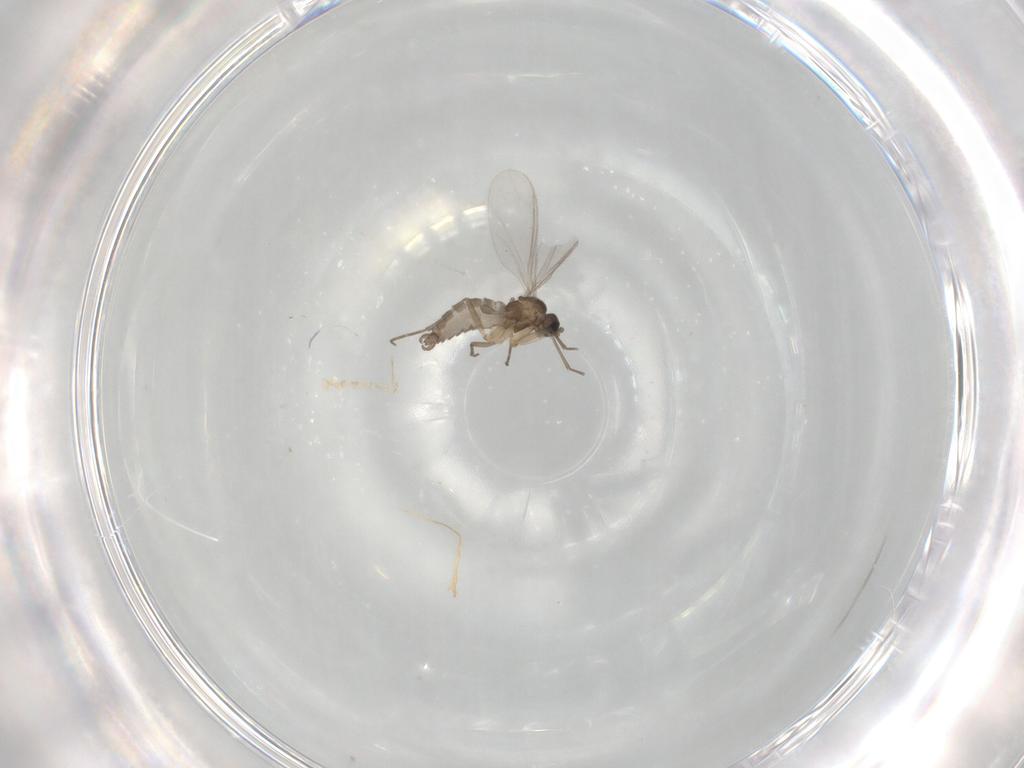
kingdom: Animalia
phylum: Arthropoda
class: Insecta
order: Diptera
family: Sciaridae
